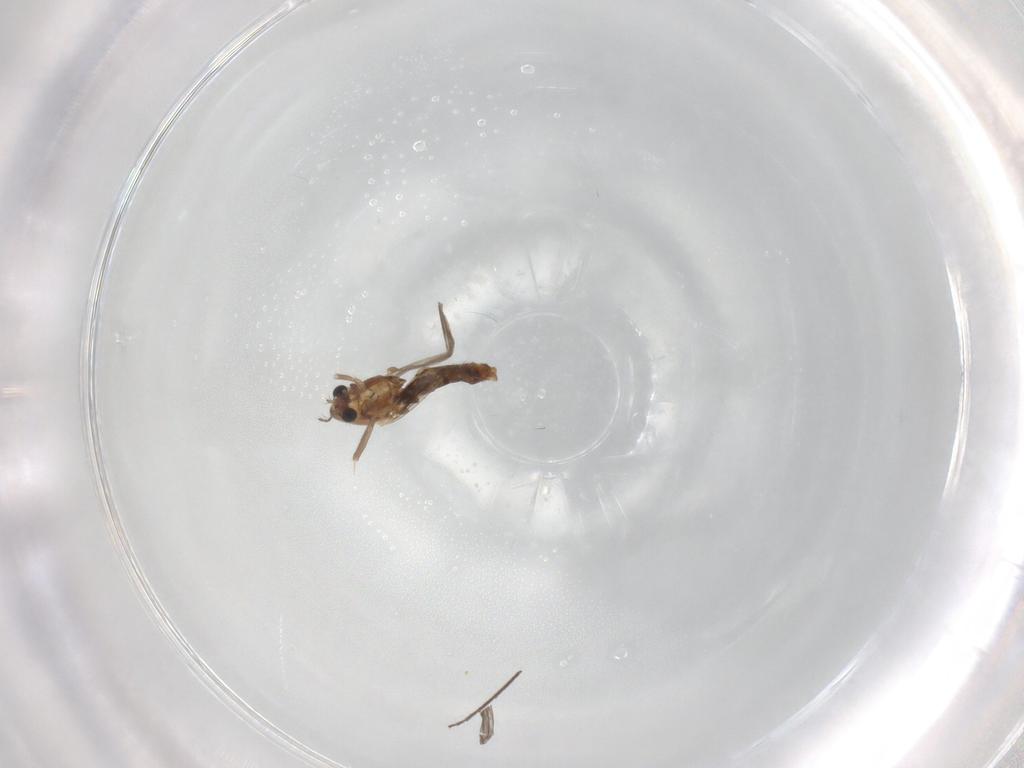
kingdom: Animalia
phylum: Arthropoda
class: Insecta
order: Diptera
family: Chironomidae
